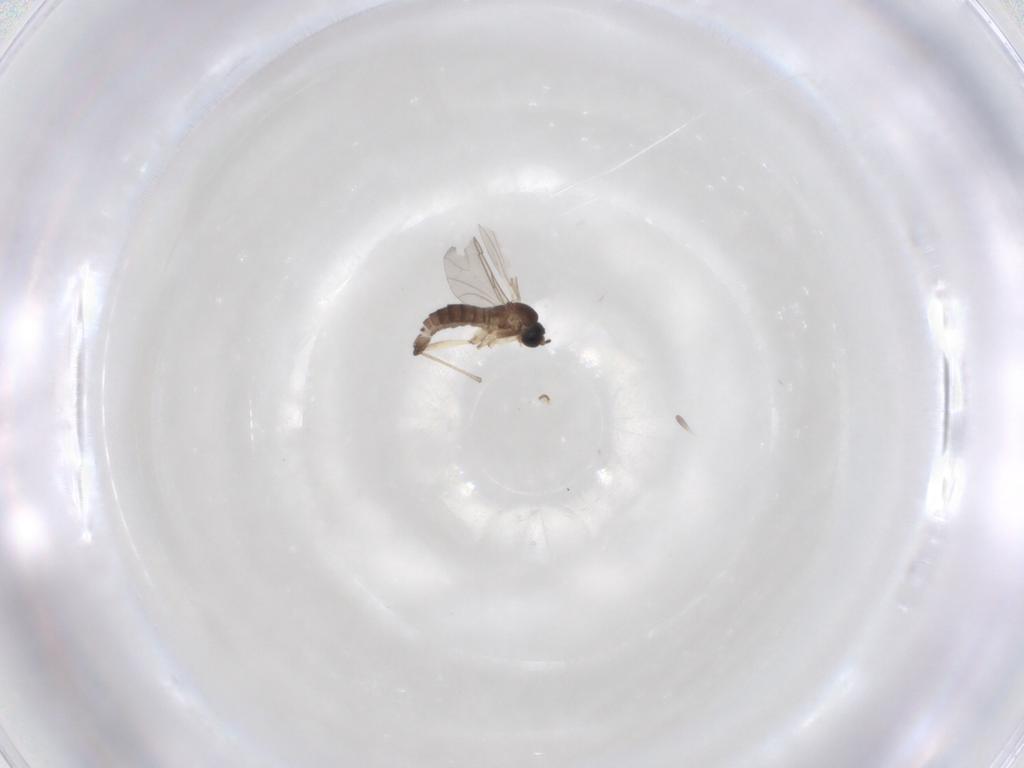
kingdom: Animalia
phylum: Arthropoda
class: Insecta
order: Diptera
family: Sciaridae
